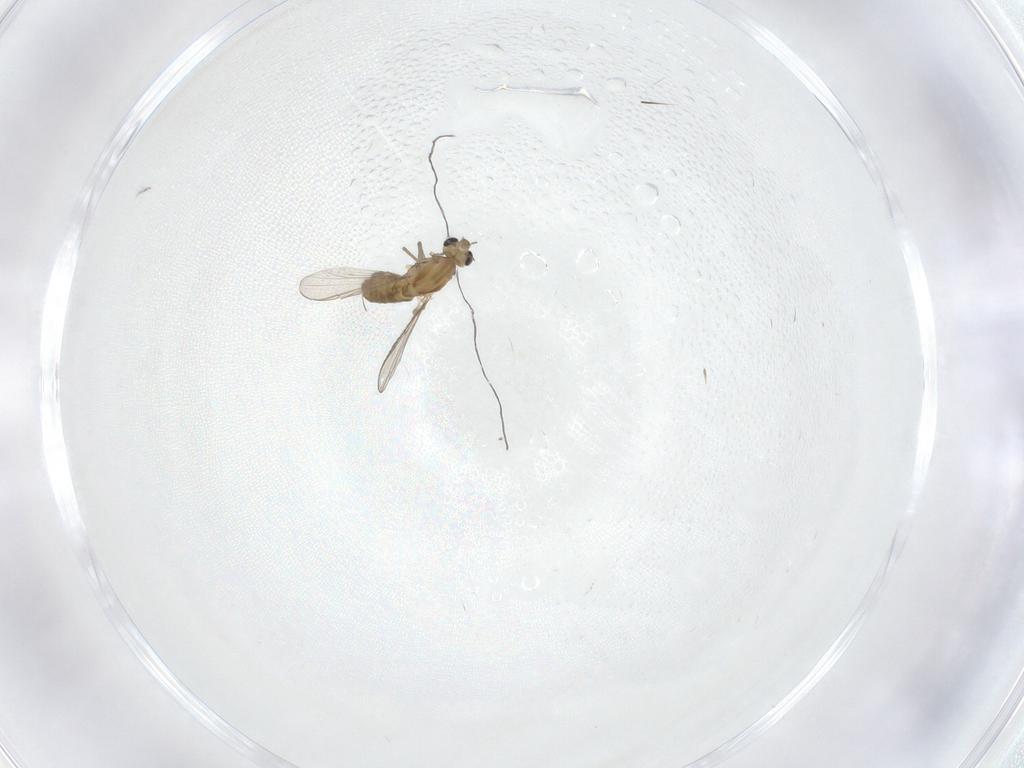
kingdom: Animalia
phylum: Arthropoda
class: Insecta
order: Diptera
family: Chironomidae
